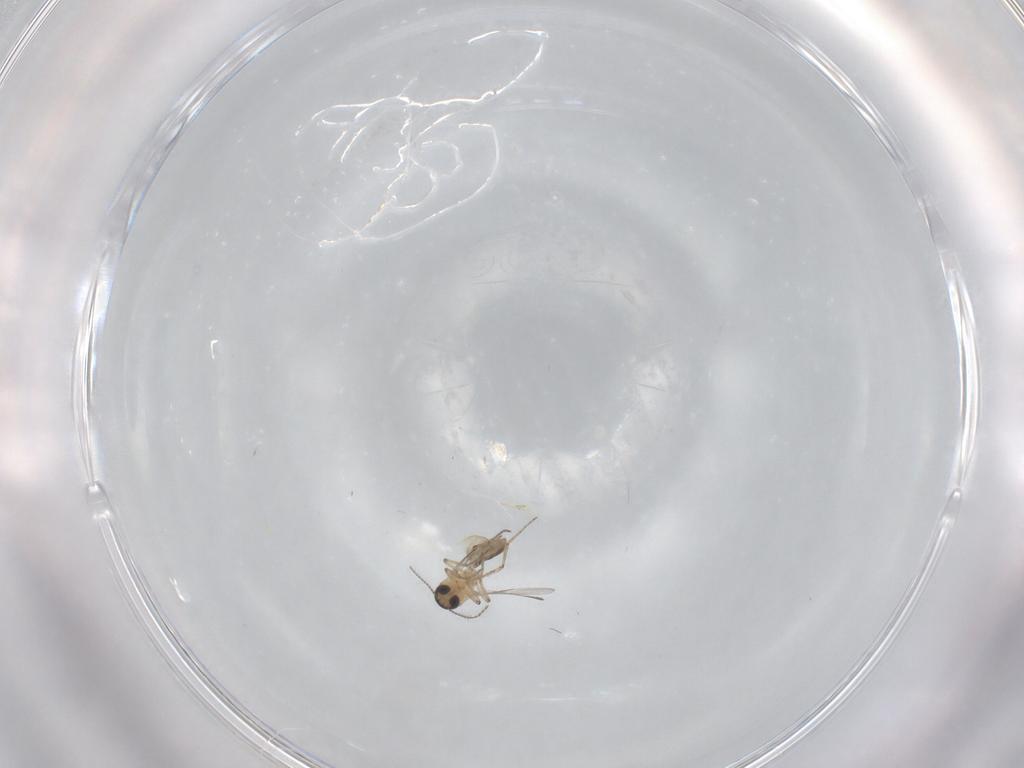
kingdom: Animalia
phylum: Arthropoda
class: Insecta
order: Diptera
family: Ceratopogonidae
